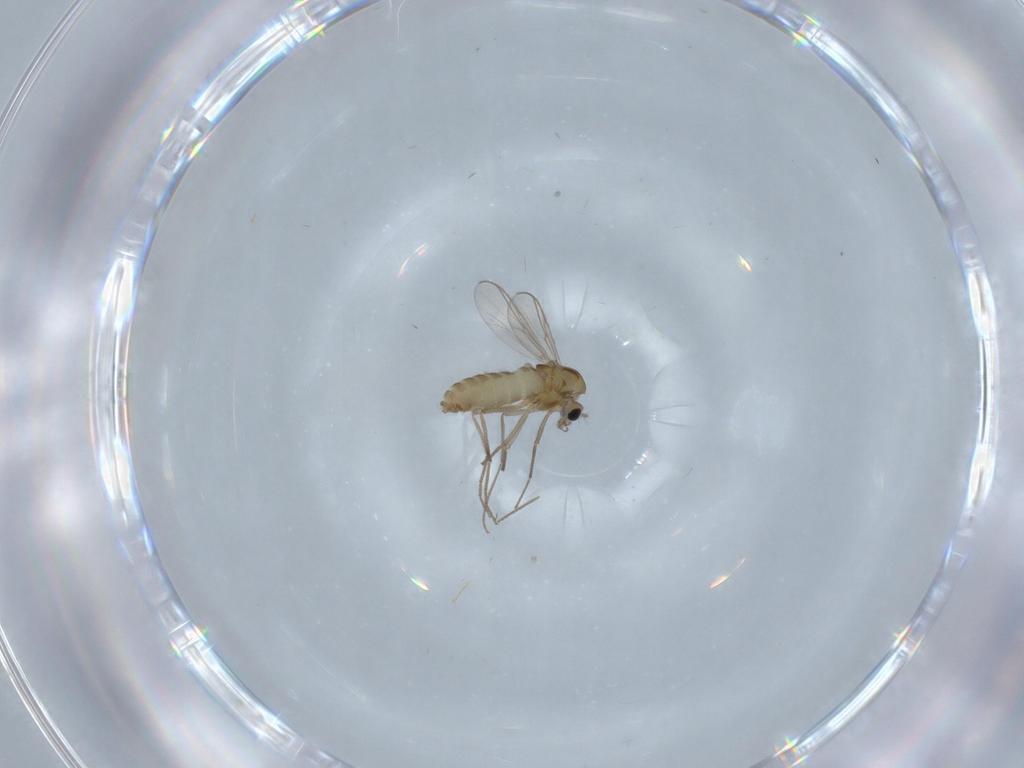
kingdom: Animalia
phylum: Arthropoda
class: Insecta
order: Diptera
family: Chironomidae
